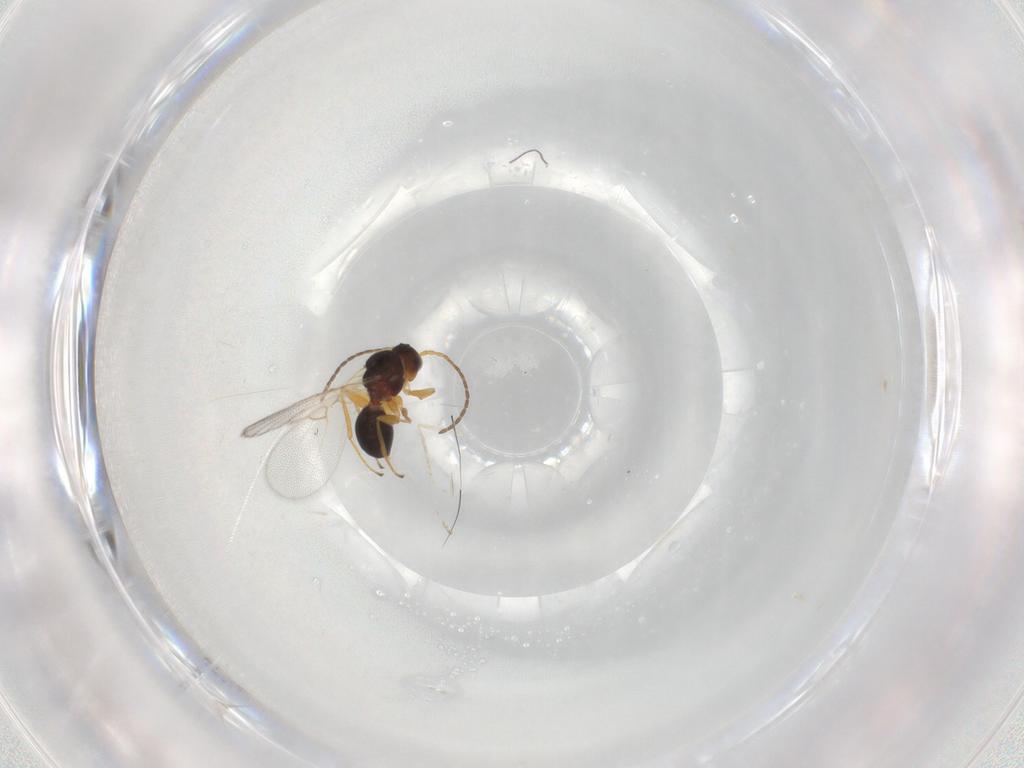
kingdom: Animalia
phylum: Arthropoda
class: Insecta
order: Hymenoptera
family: Figitidae
